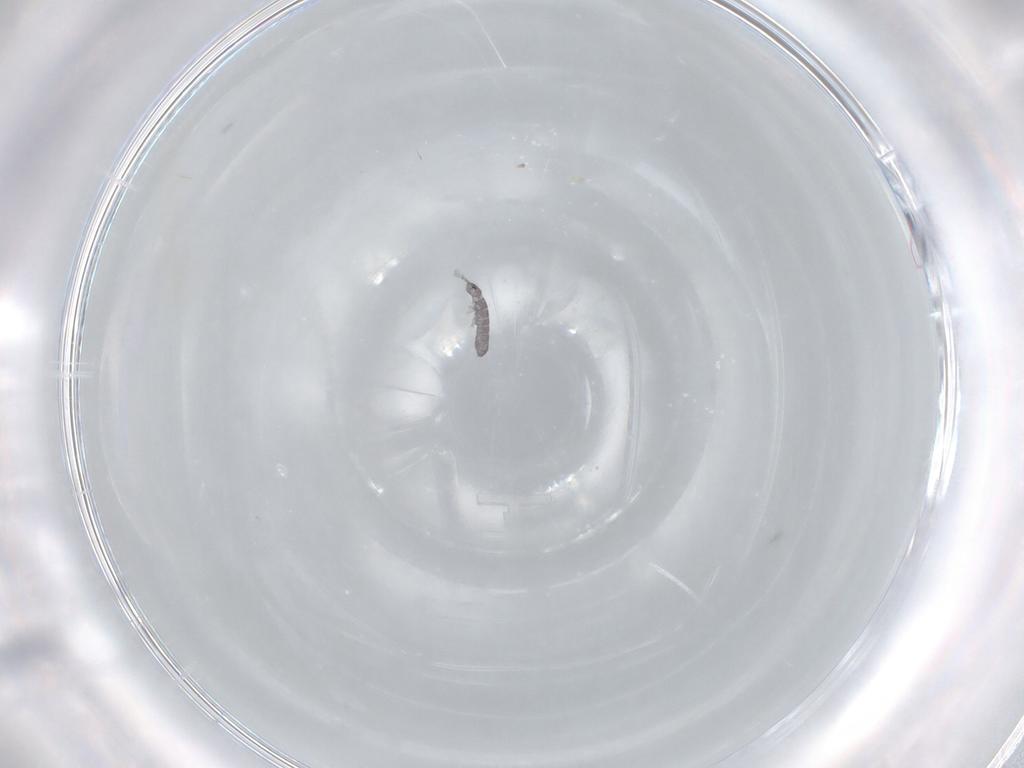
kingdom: Animalia
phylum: Arthropoda
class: Collembola
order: Entomobryomorpha
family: Isotomidae
